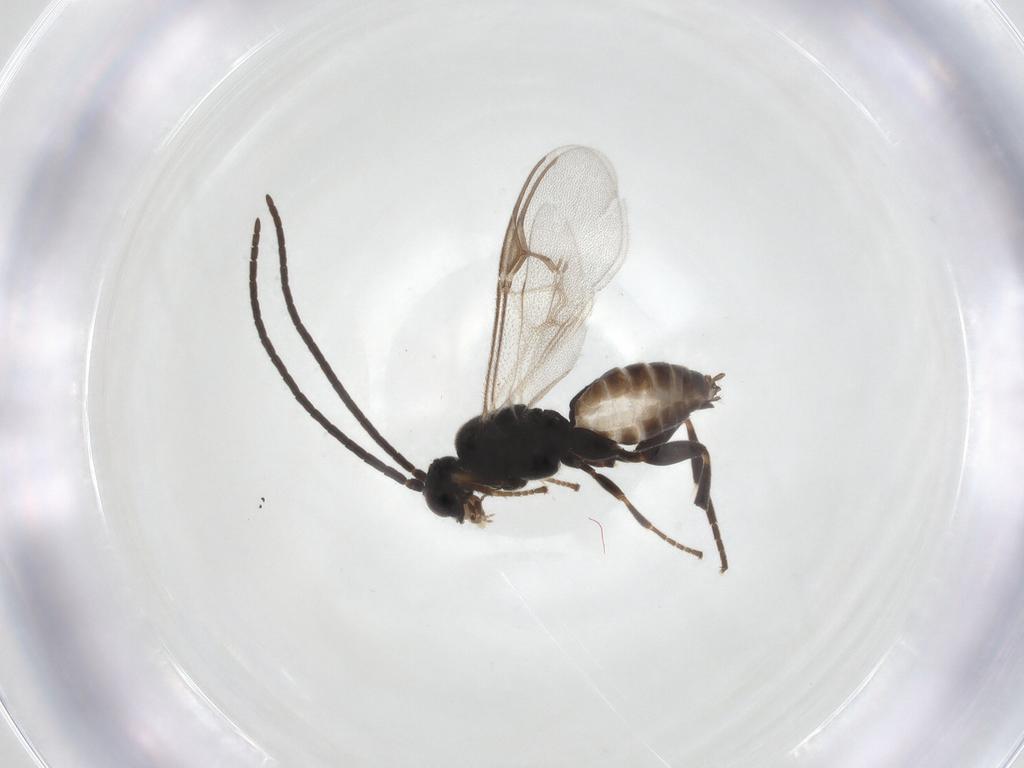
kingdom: Animalia
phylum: Arthropoda
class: Insecta
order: Hymenoptera
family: Braconidae
